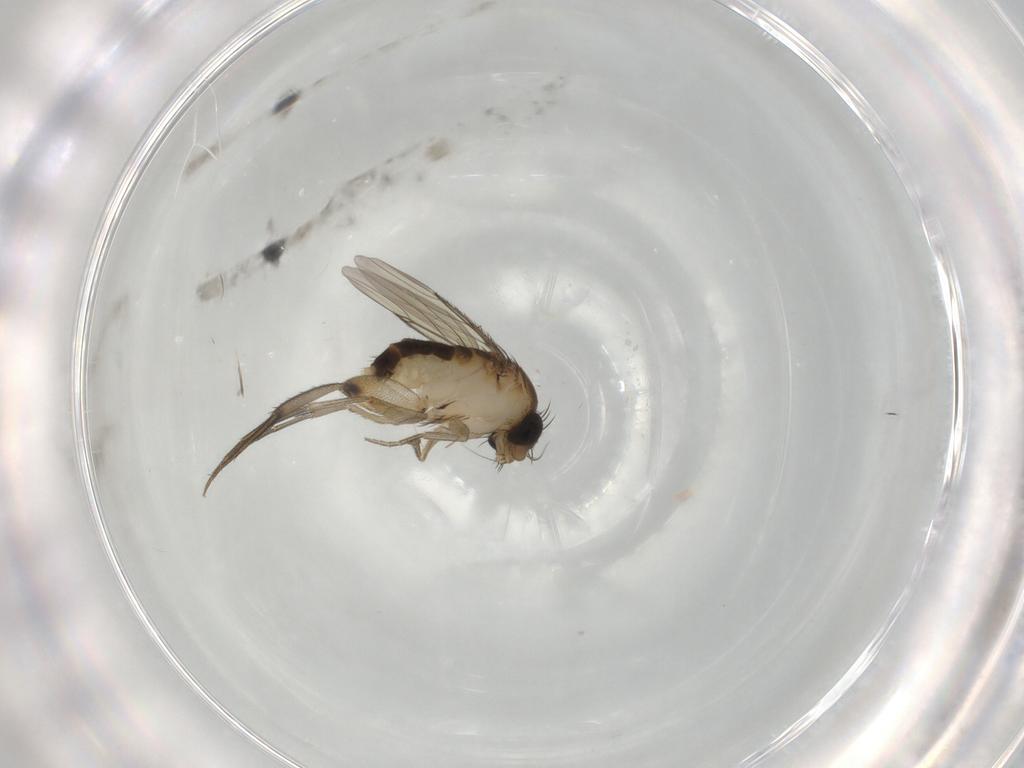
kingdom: Animalia
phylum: Arthropoda
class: Insecta
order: Diptera
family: Phoridae
